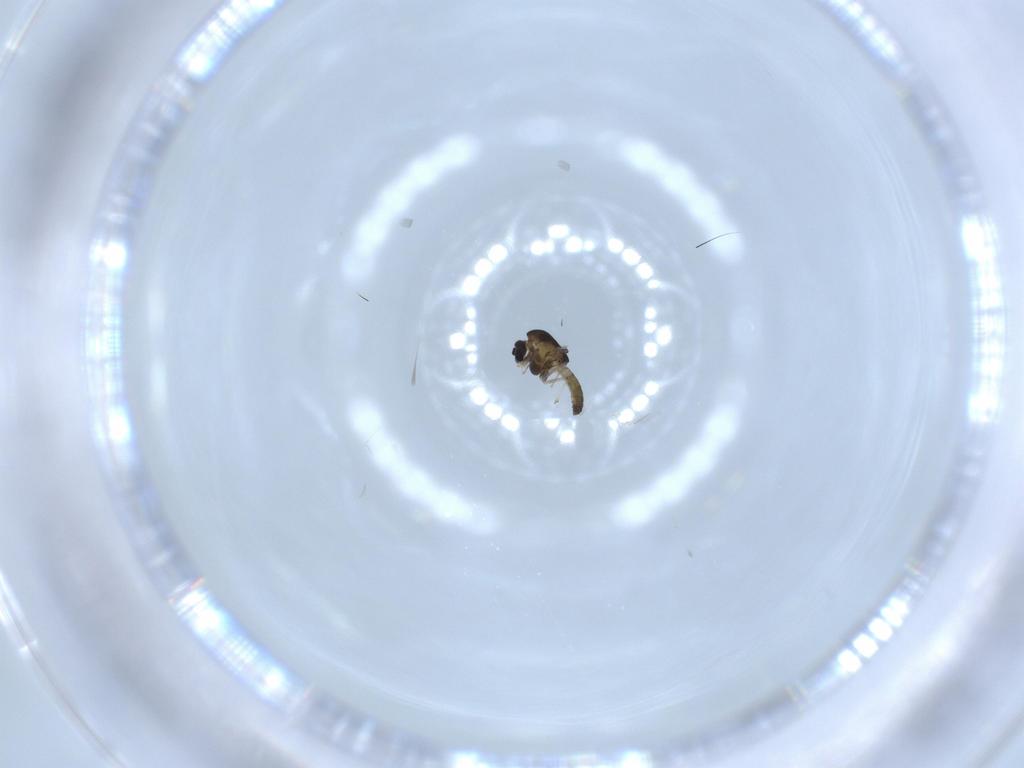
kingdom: Animalia
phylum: Arthropoda
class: Insecta
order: Diptera
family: Chironomidae
